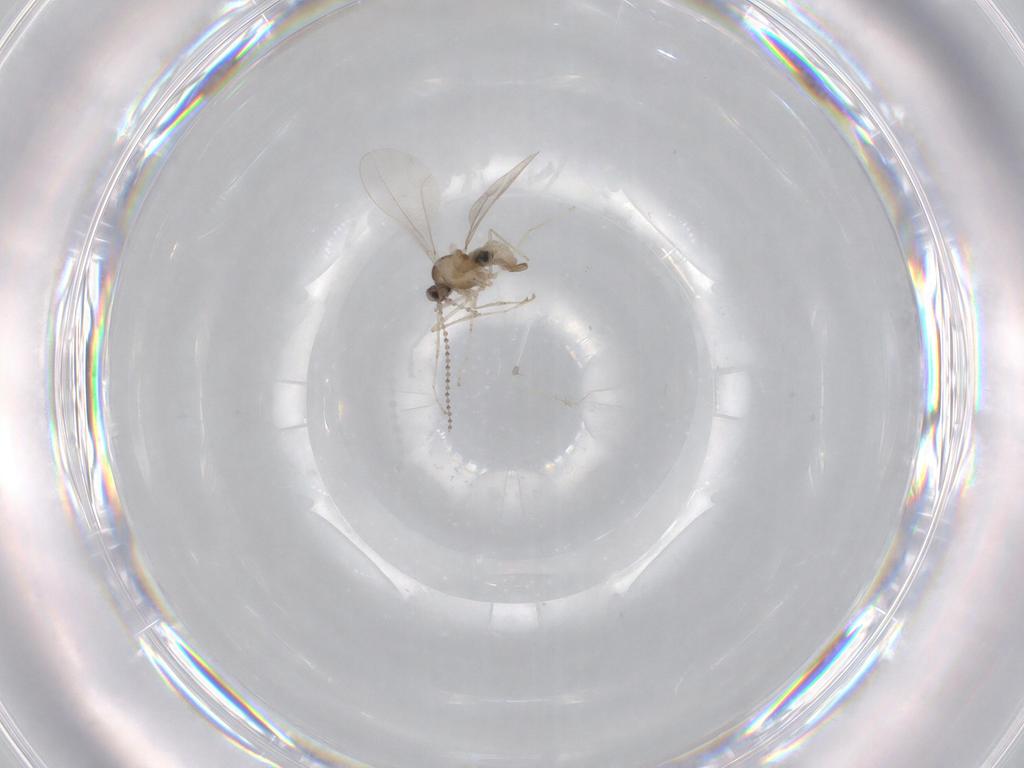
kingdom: Animalia
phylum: Arthropoda
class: Insecta
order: Diptera
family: Cecidomyiidae
